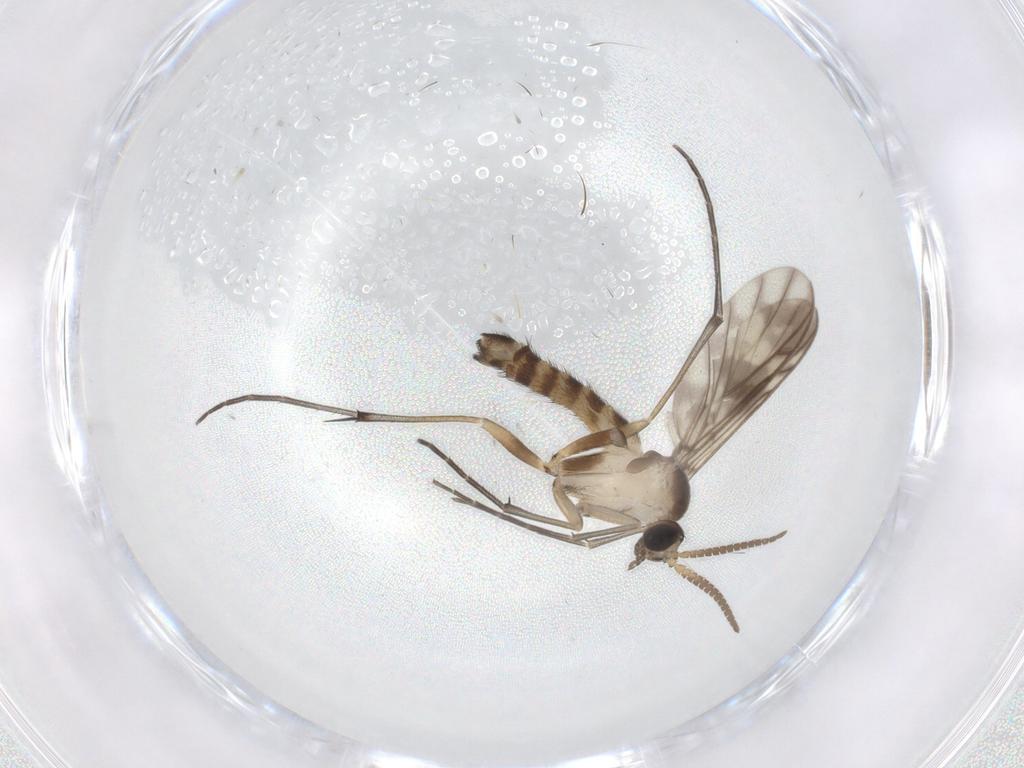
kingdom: Animalia
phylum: Arthropoda
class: Insecta
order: Diptera
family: Keroplatidae
